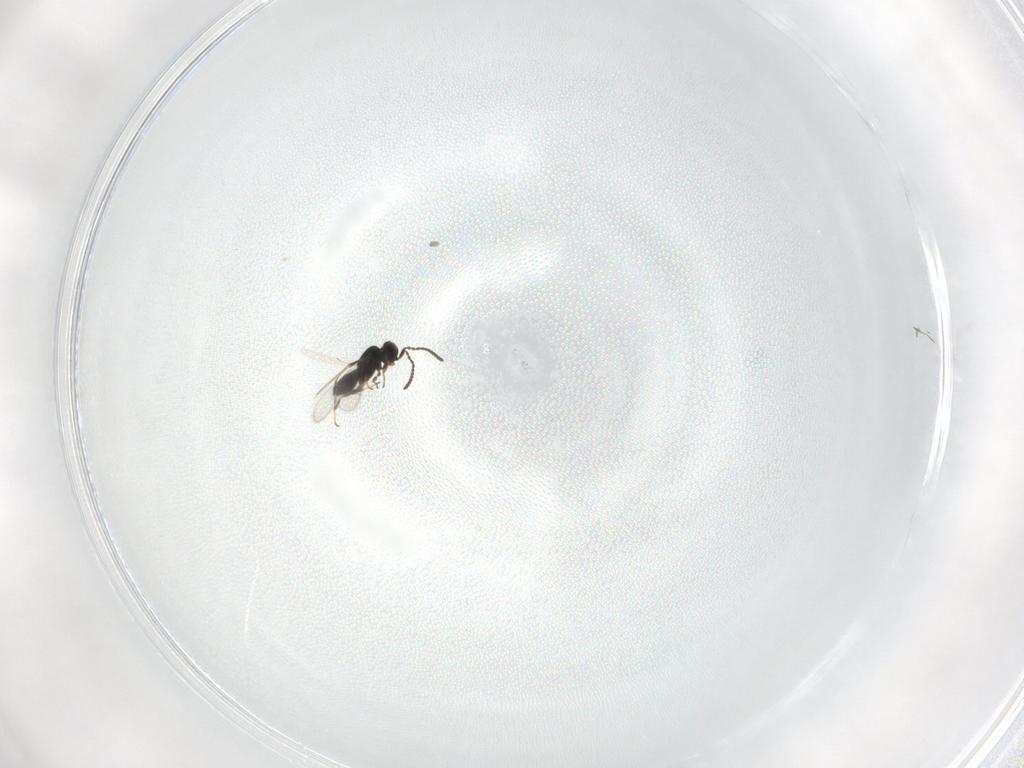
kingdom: Animalia
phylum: Arthropoda
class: Insecta
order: Hymenoptera
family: Scelionidae
